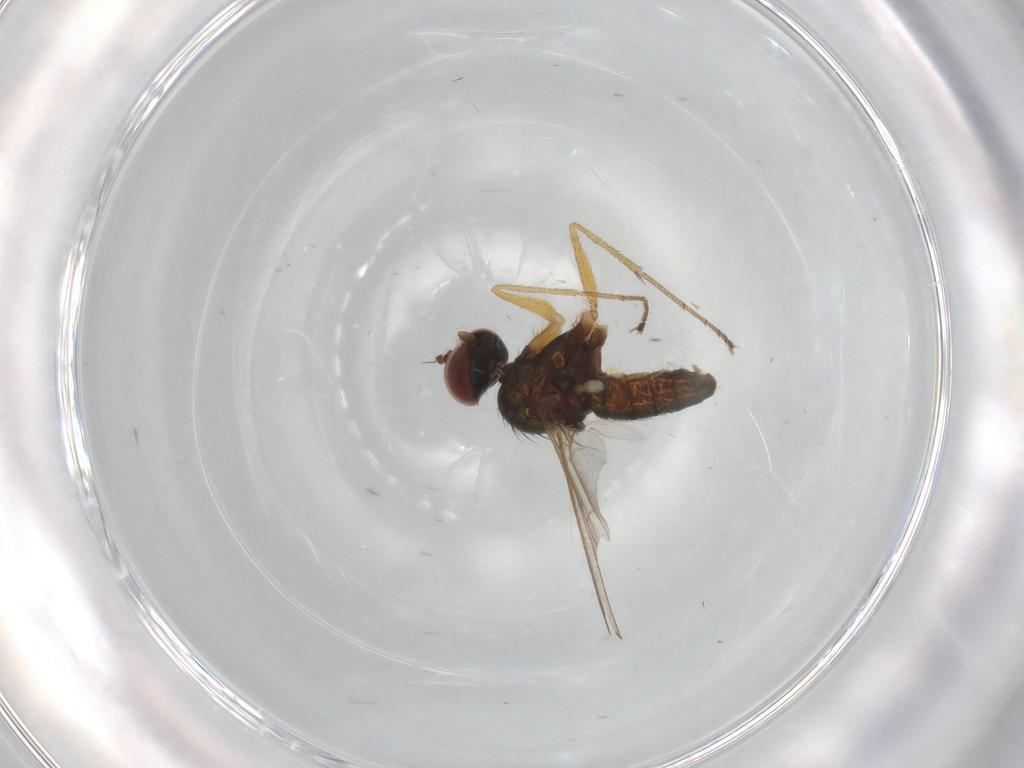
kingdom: Animalia
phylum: Arthropoda
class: Insecta
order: Diptera
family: Dolichopodidae
